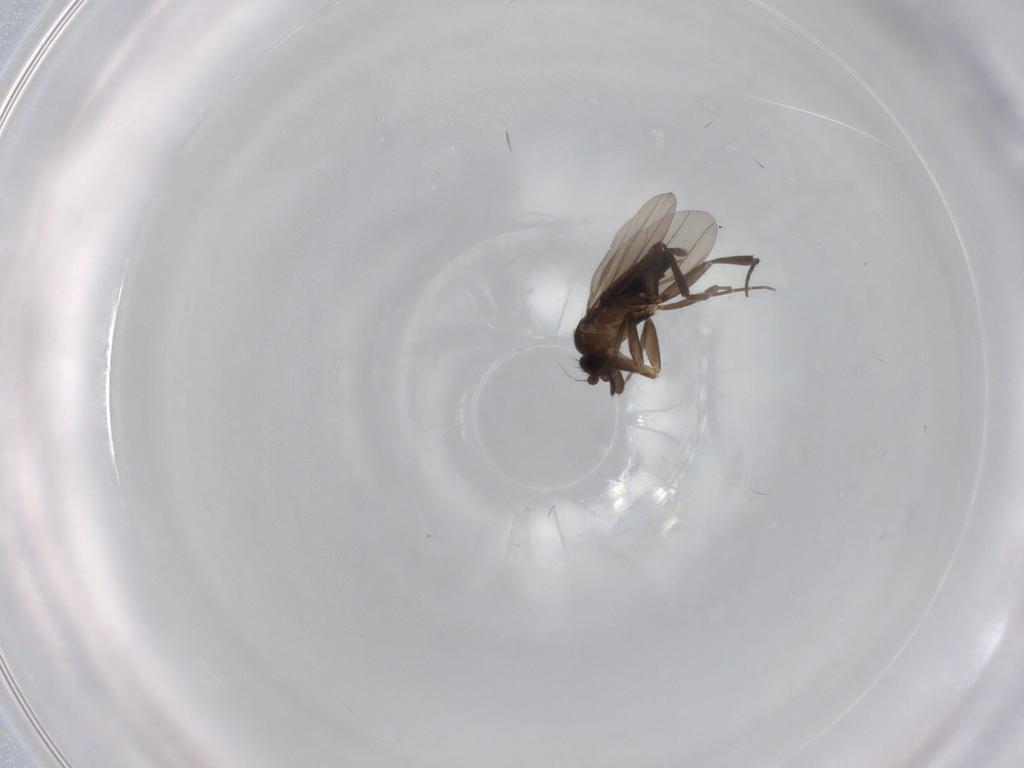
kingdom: Animalia
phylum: Arthropoda
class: Insecta
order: Diptera
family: Phoridae
